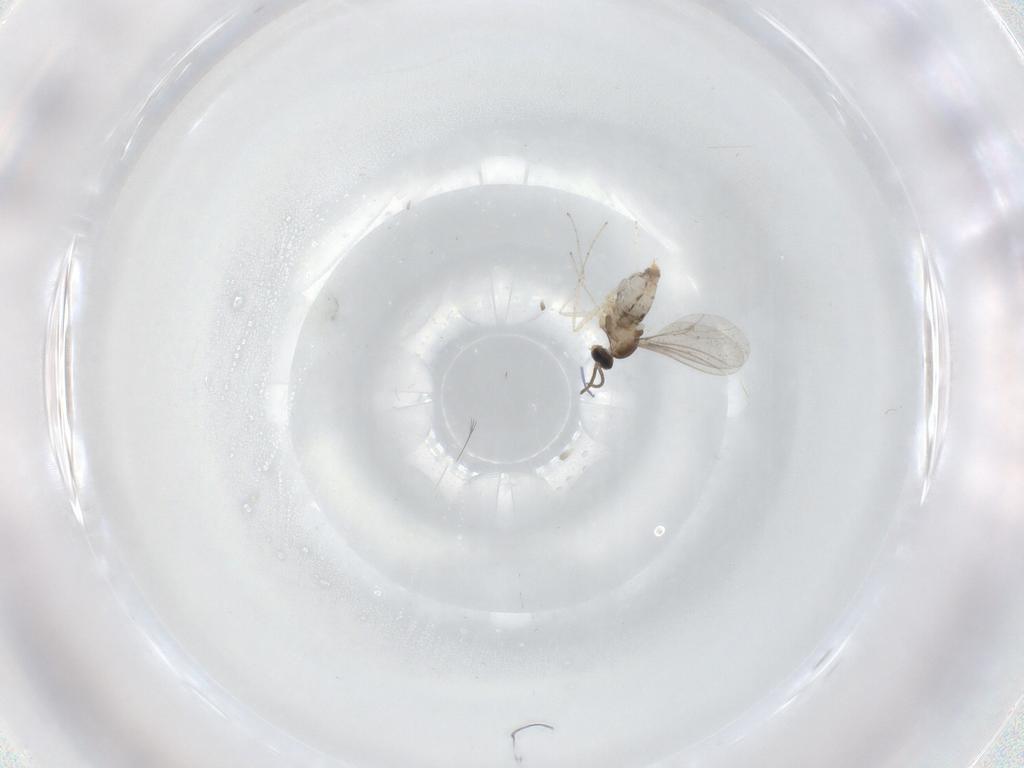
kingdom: Animalia
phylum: Arthropoda
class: Insecta
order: Diptera
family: Cecidomyiidae
